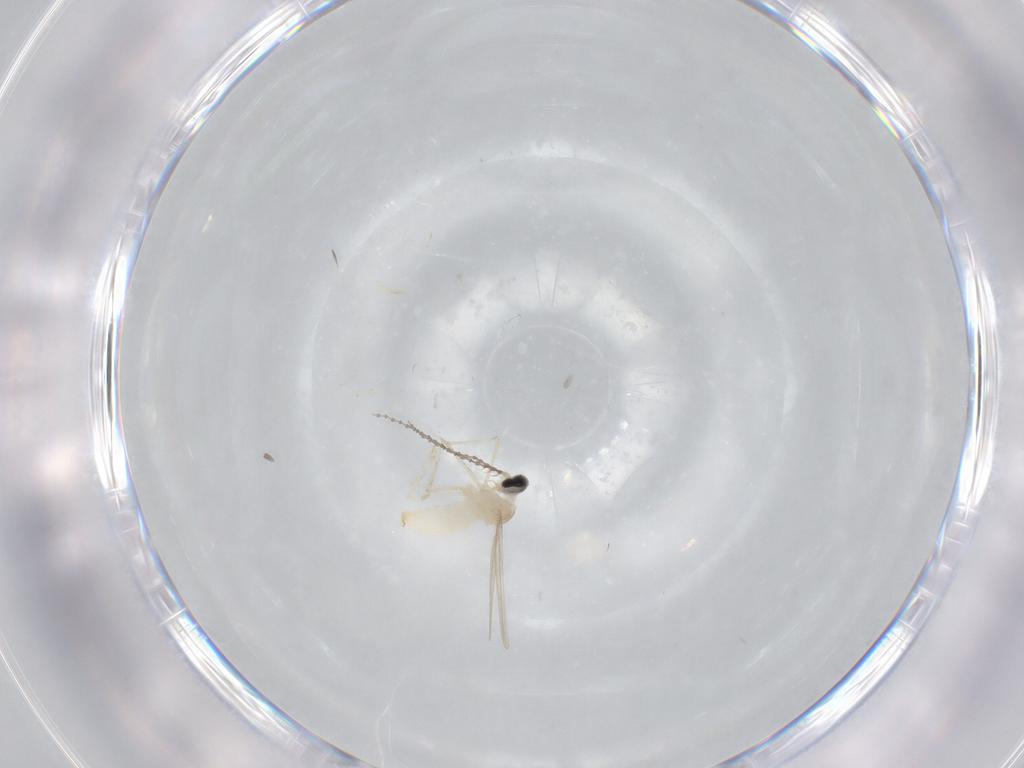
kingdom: Animalia
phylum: Arthropoda
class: Insecta
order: Diptera
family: Cecidomyiidae
